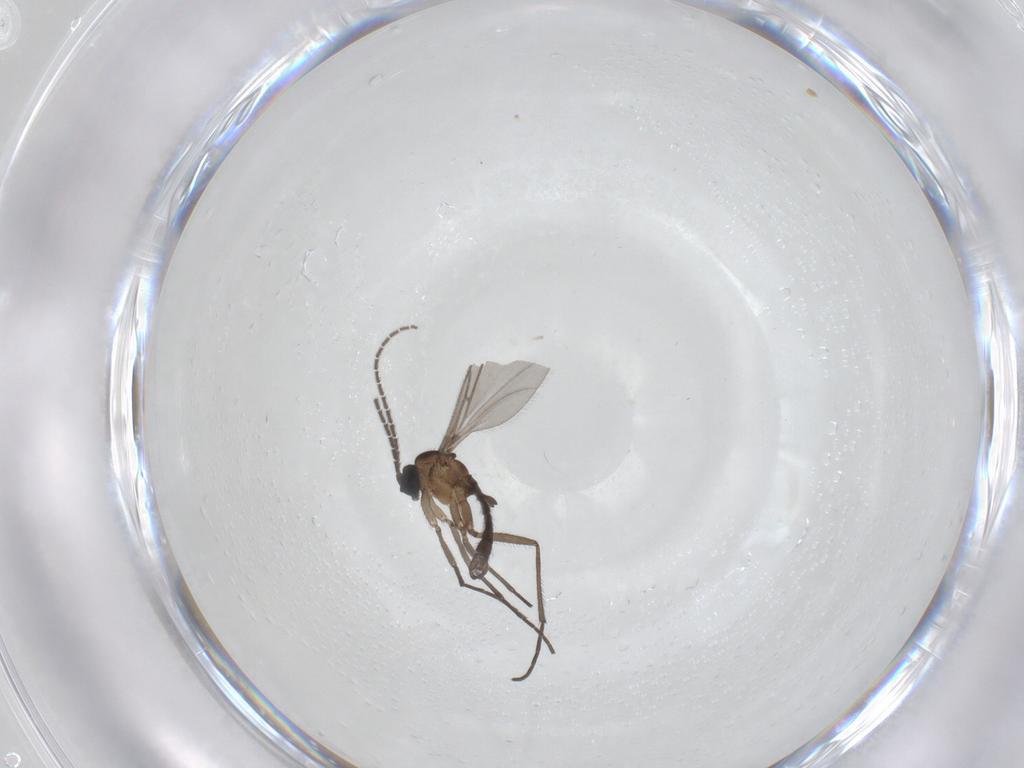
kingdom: Animalia
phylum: Arthropoda
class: Insecta
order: Diptera
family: Sciaridae
